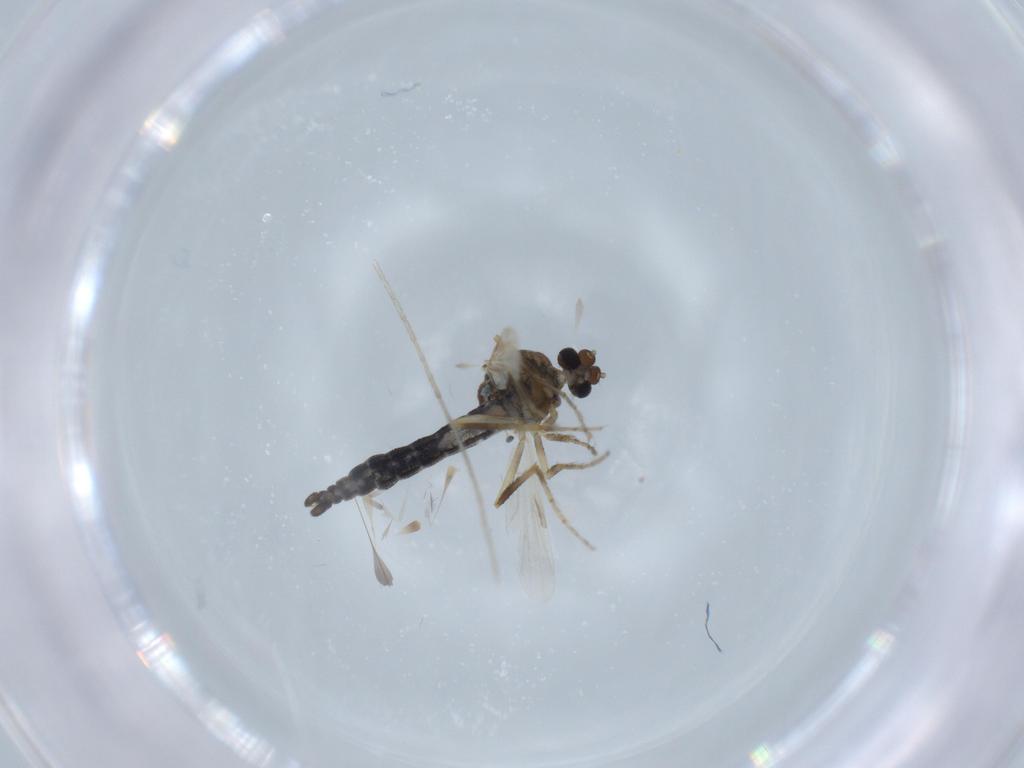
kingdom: Animalia
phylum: Arthropoda
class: Insecta
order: Diptera
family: Ceratopogonidae
